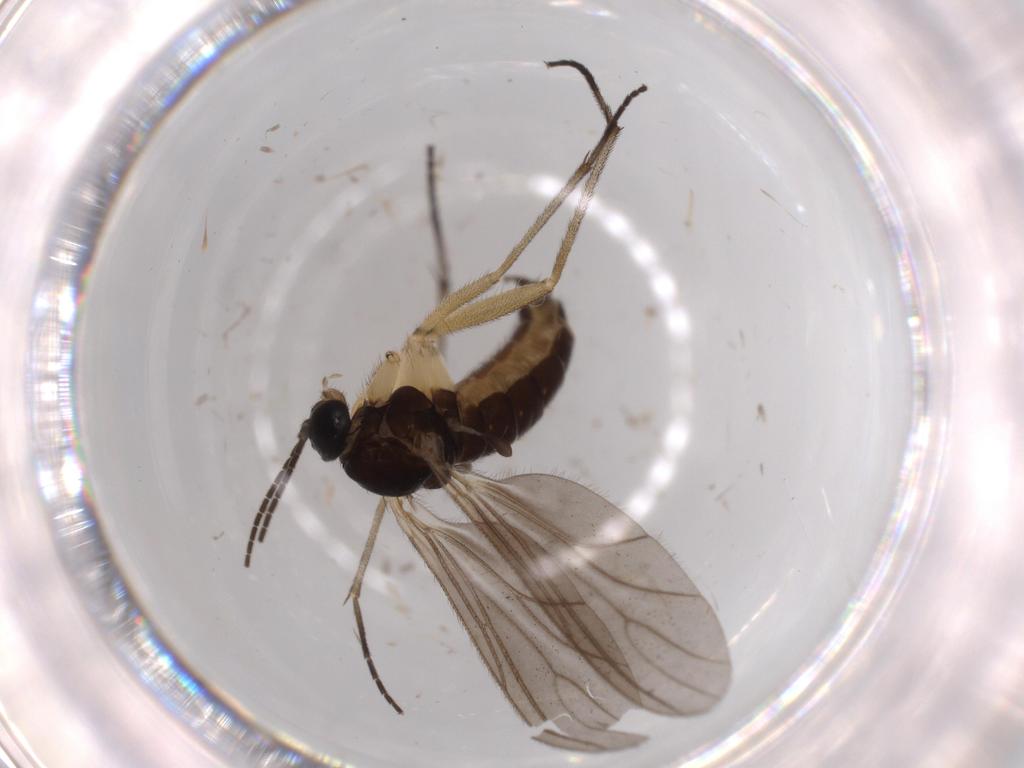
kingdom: Animalia
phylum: Arthropoda
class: Insecta
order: Diptera
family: Sciaridae
